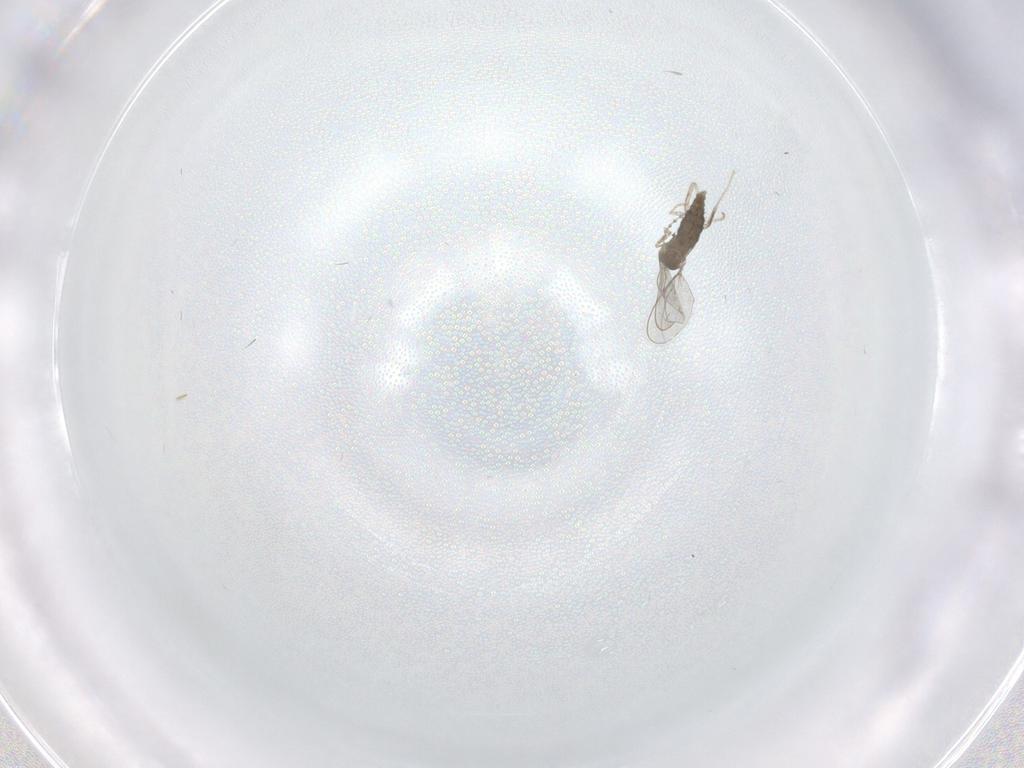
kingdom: Animalia
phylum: Arthropoda
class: Insecta
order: Diptera
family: Cecidomyiidae
